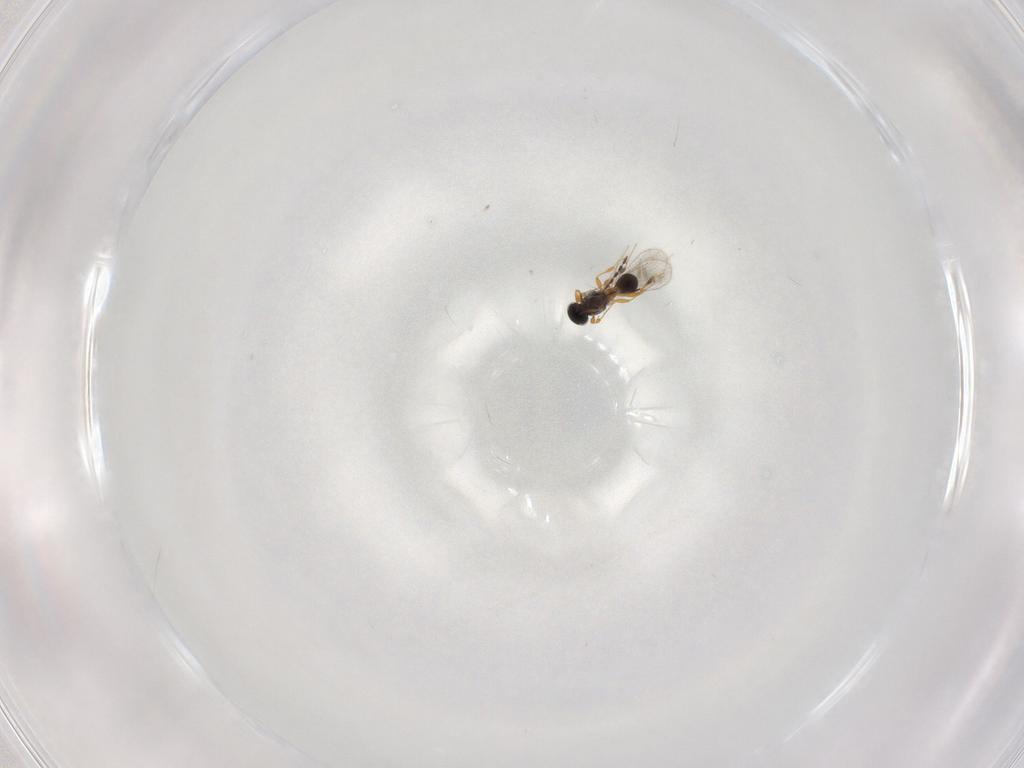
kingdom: Animalia
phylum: Arthropoda
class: Insecta
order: Hymenoptera
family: Platygastridae
